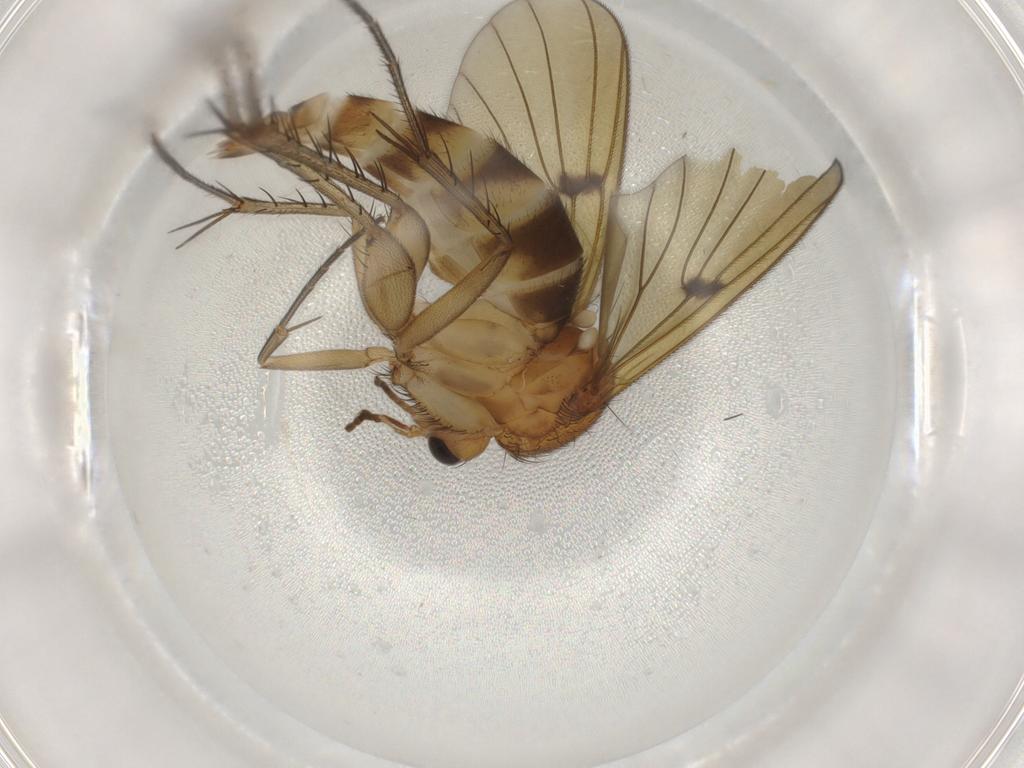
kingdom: Animalia
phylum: Arthropoda
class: Insecta
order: Diptera
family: Mycetophilidae
